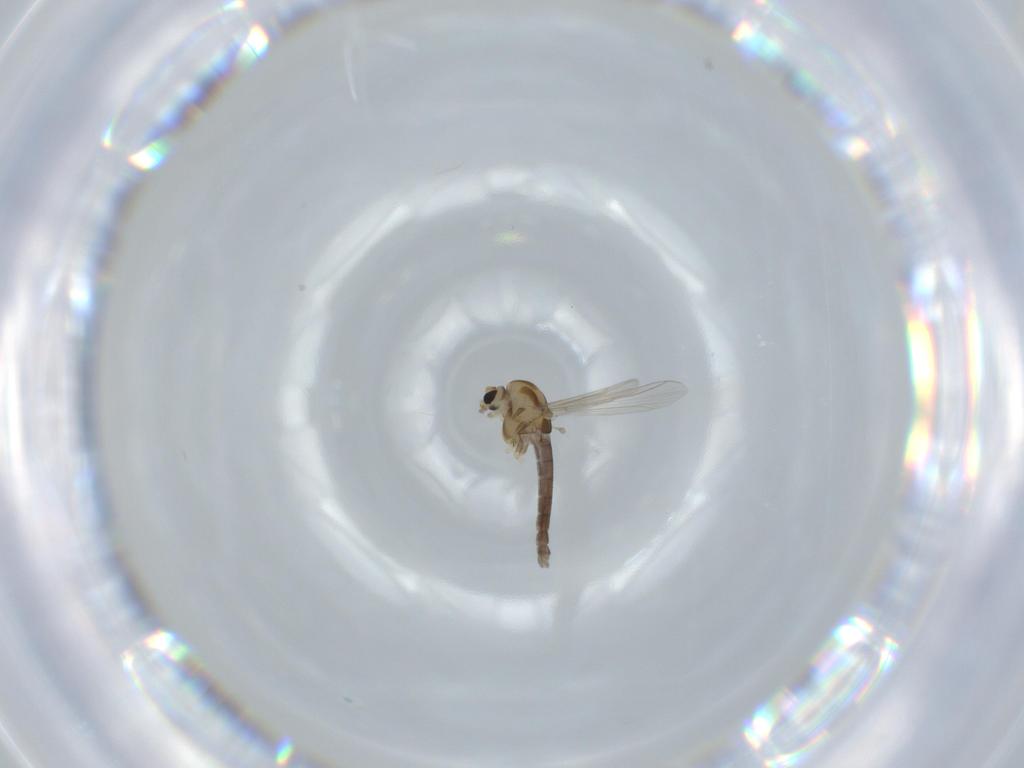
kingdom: Animalia
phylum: Arthropoda
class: Insecta
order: Diptera
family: Chironomidae
